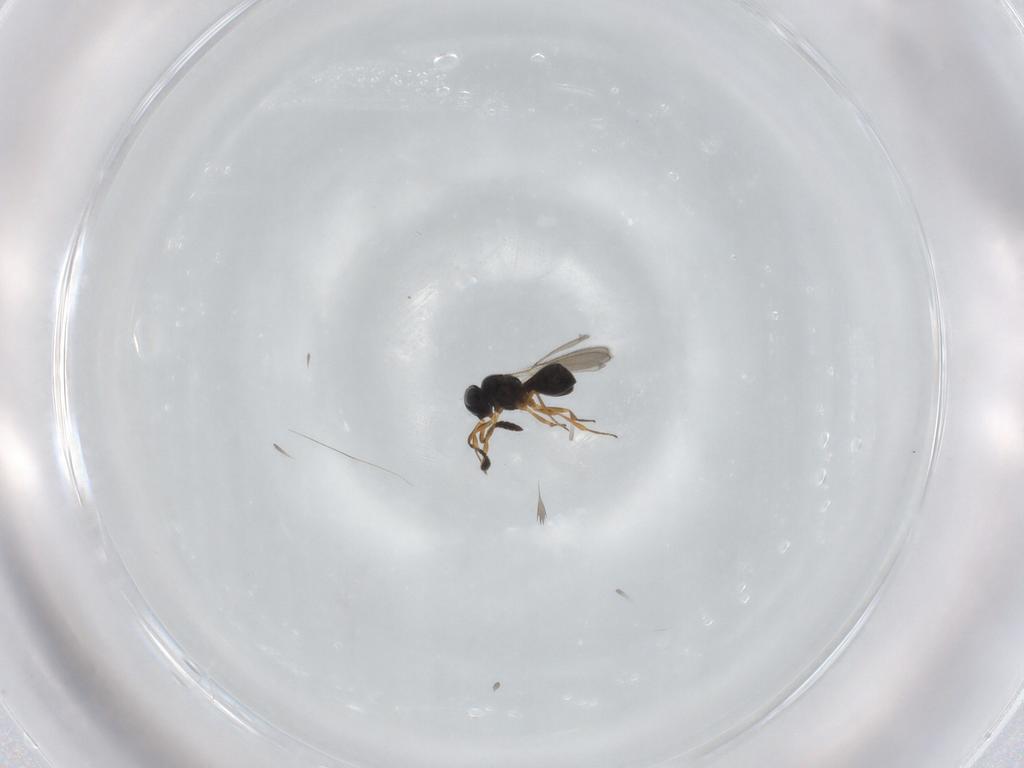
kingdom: Animalia
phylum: Arthropoda
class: Insecta
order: Hymenoptera
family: Scelionidae
